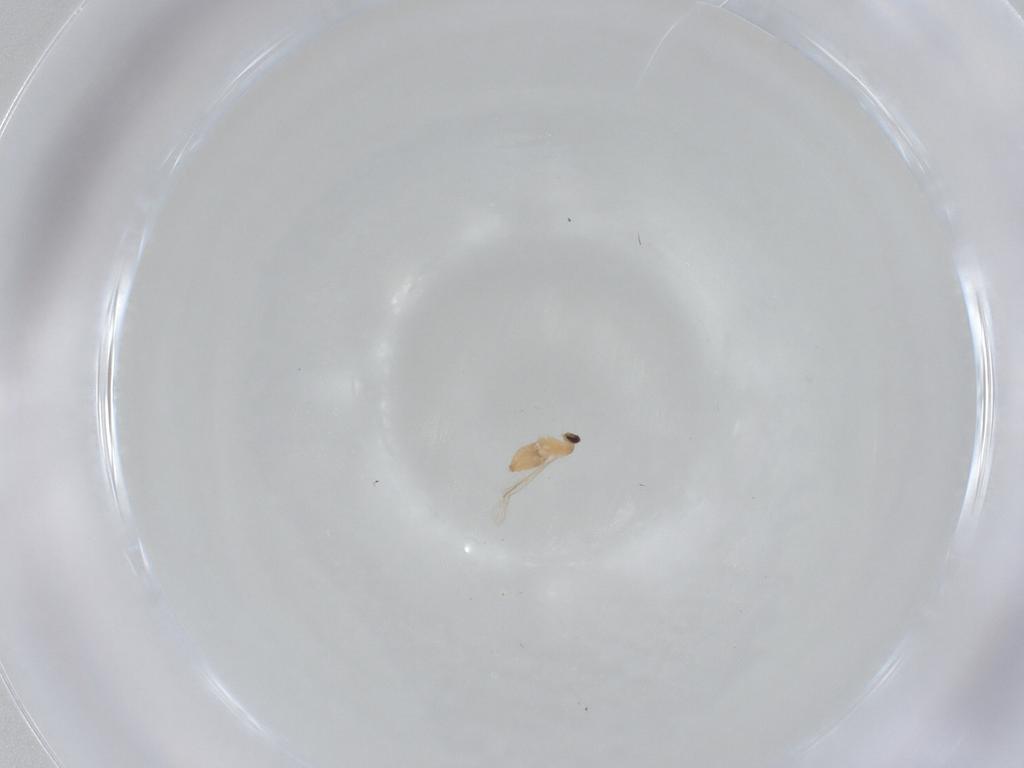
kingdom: Animalia
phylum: Arthropoda
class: Insecta
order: Diptera
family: Cecidomyiidae
